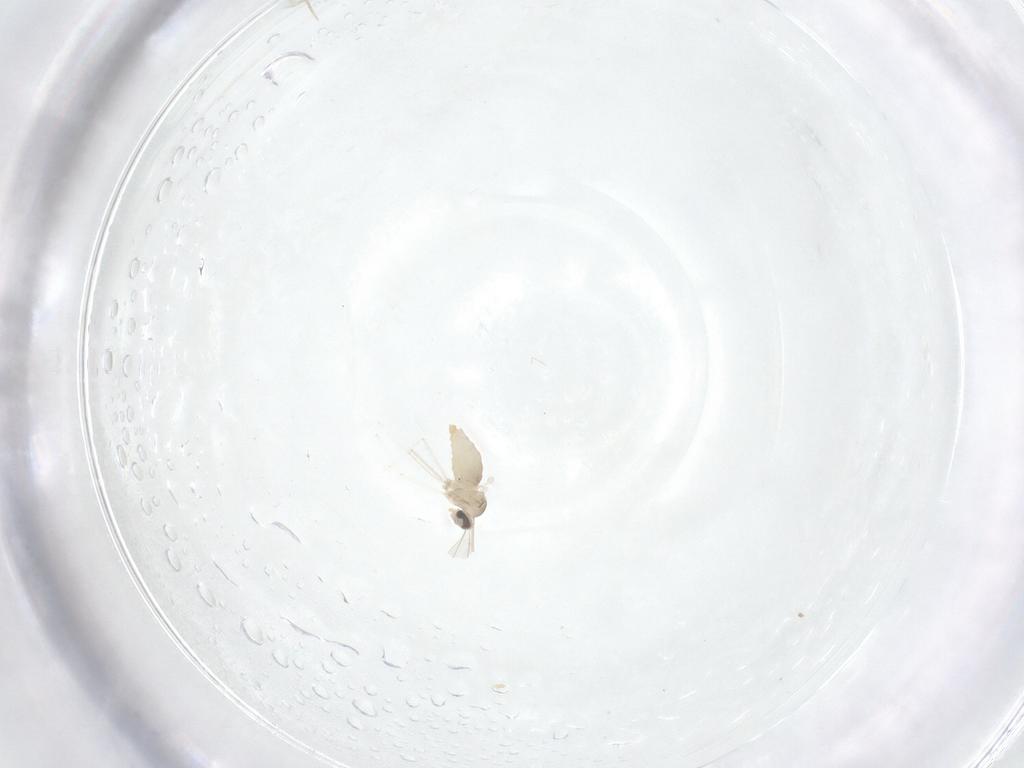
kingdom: Animalia
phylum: Arthropoda
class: Insecta
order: Diptera
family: Cecidomyiidae
